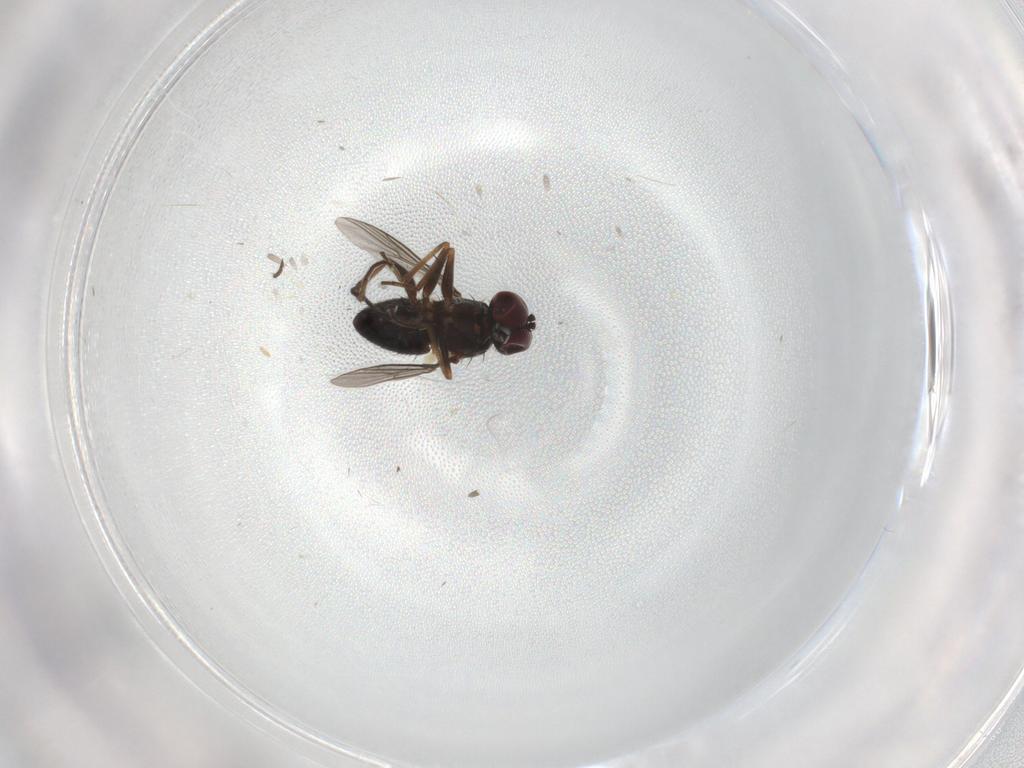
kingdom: Animalia
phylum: Arthropoda
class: Insecta
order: Diptera
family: Dolichopodidae
